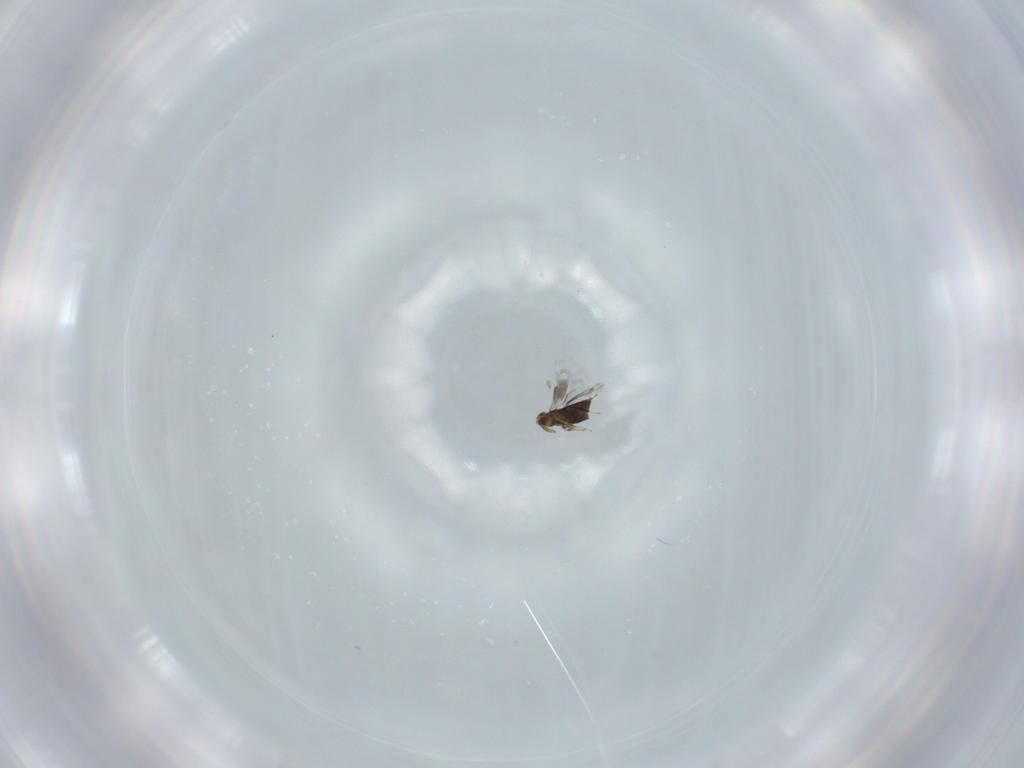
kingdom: Animalia
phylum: Arthropoda
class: Insecta
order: Hymenoptera
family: Signiphoridae
